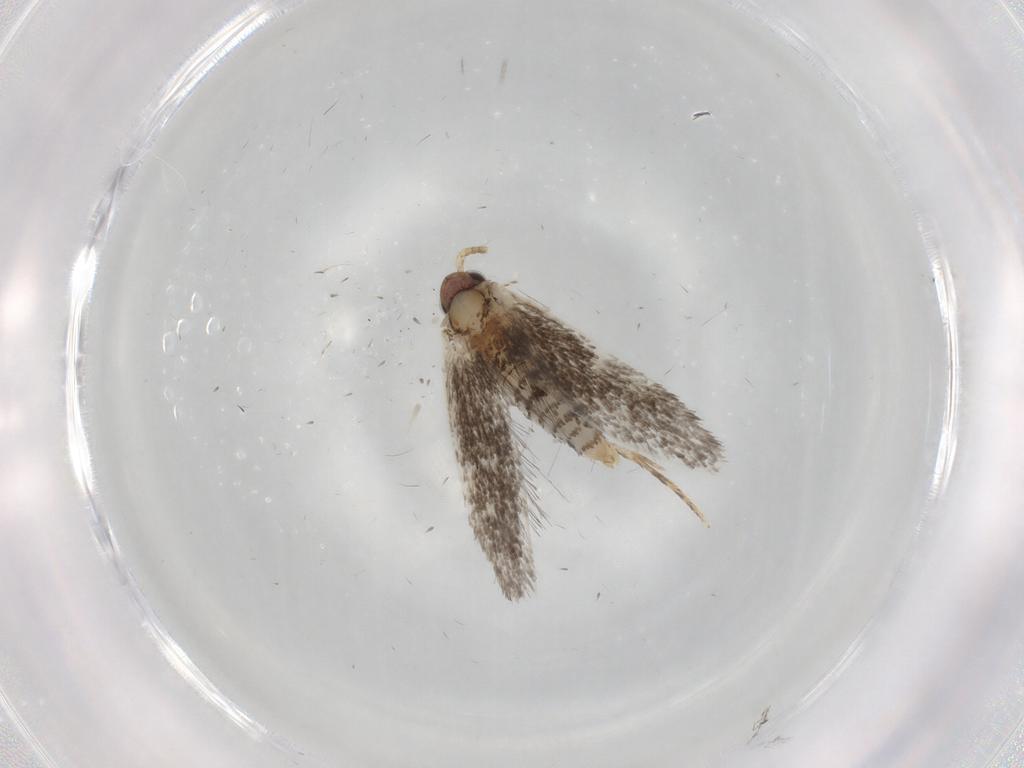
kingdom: Animalia
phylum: Arthropoda
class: Insecta
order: Lepidoptera
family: Tineidae
